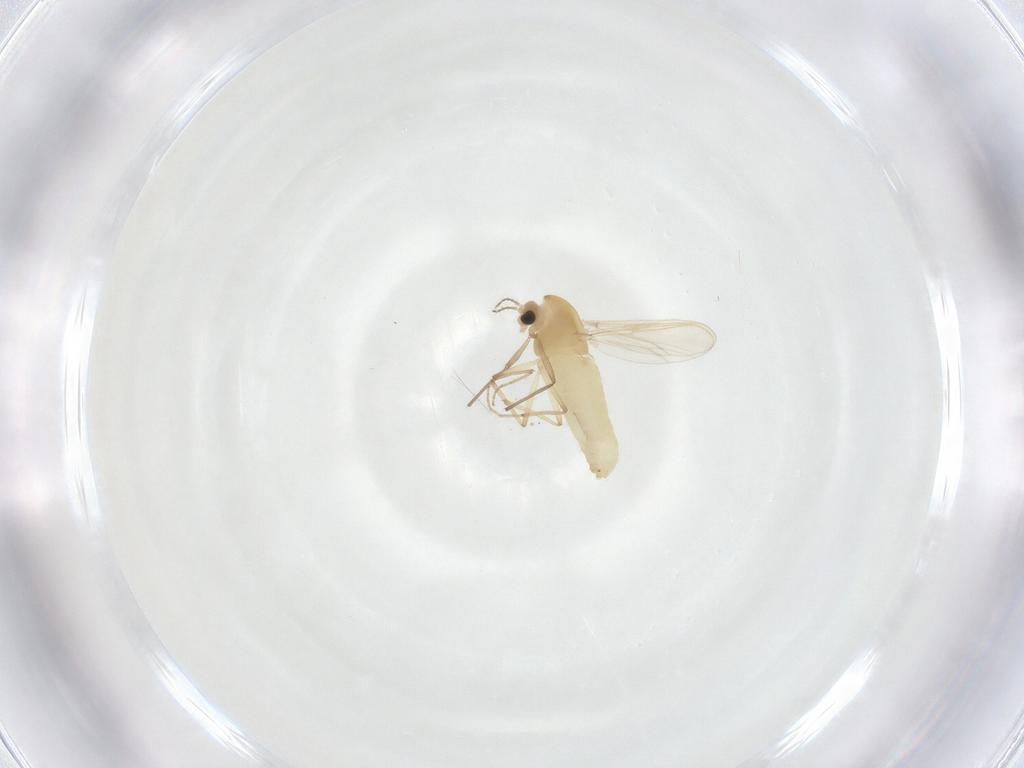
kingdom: Animalia
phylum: Arthropoda
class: Insecta
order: Diptera
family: Chironomidae
